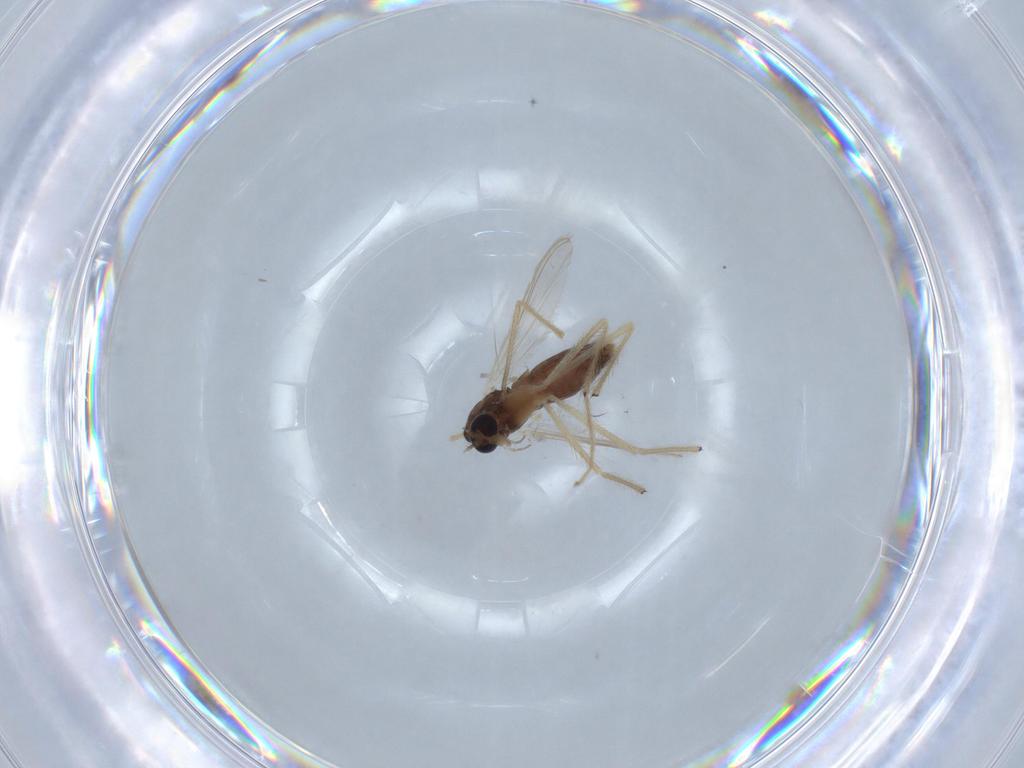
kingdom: Animalia
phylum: Arthropoda
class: Insecta
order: Diptera
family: Chironomidae
